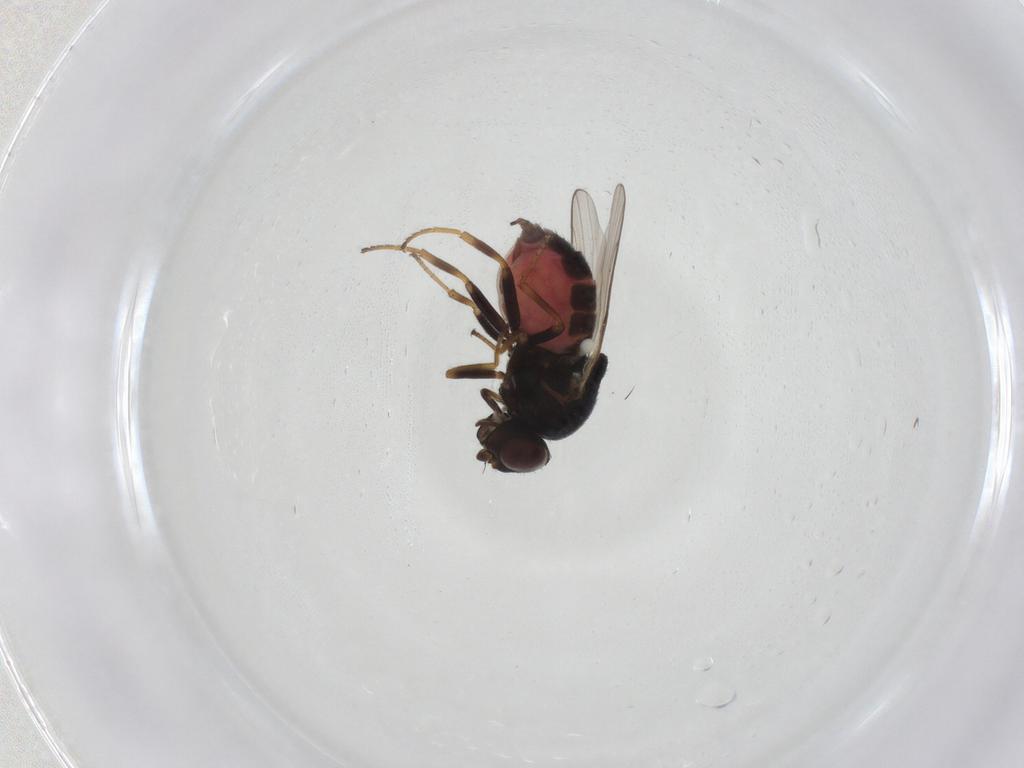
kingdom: Animalia
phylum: Arthropoda
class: Insecta
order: Diptera
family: Chloropidae
